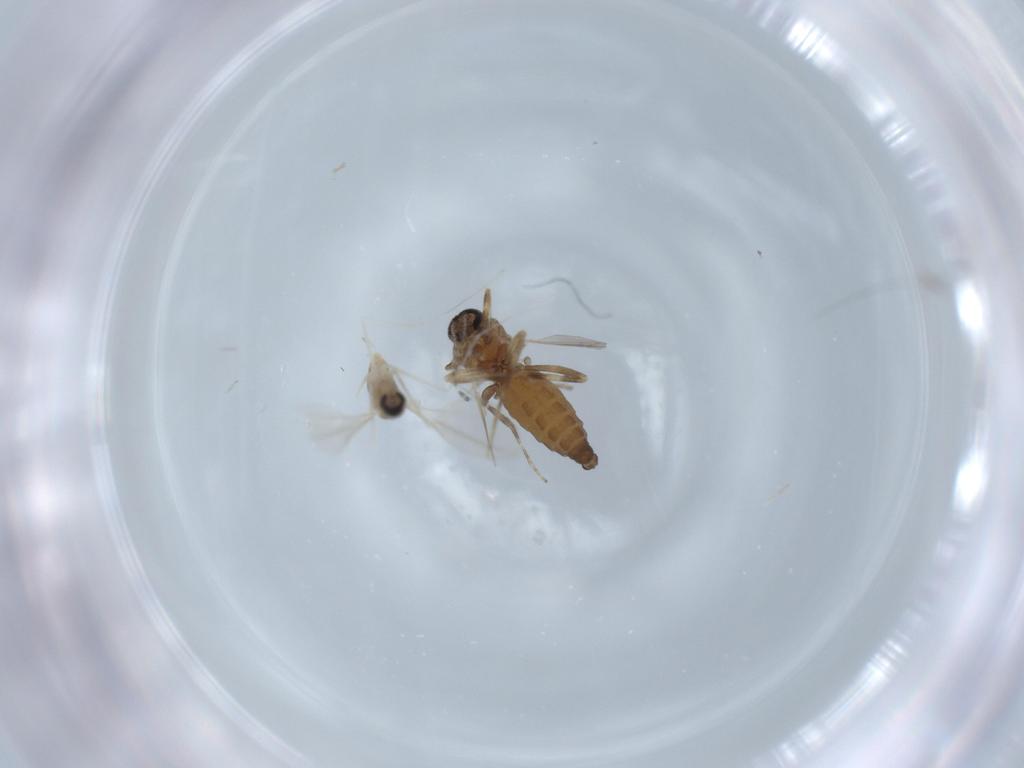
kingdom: Animalia
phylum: Arthropoda
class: Insecta
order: Diptera
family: Ceratopogonidae
